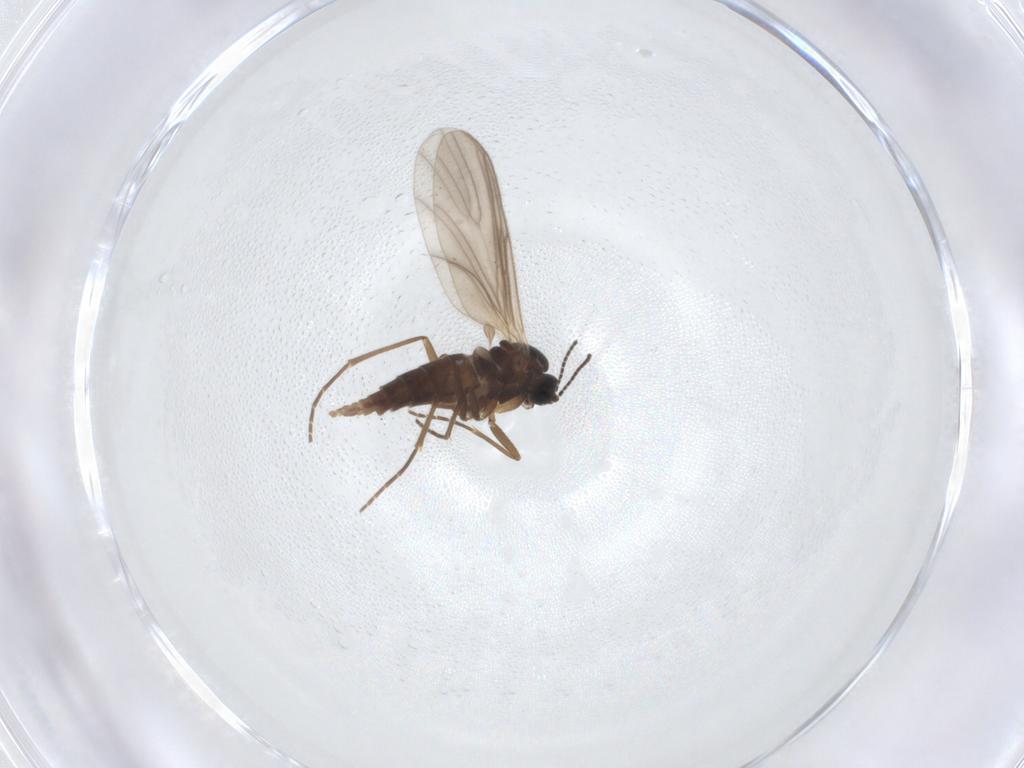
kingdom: Animalia
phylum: Arthropoda
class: Insecta
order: Diptera
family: Sciaridae
